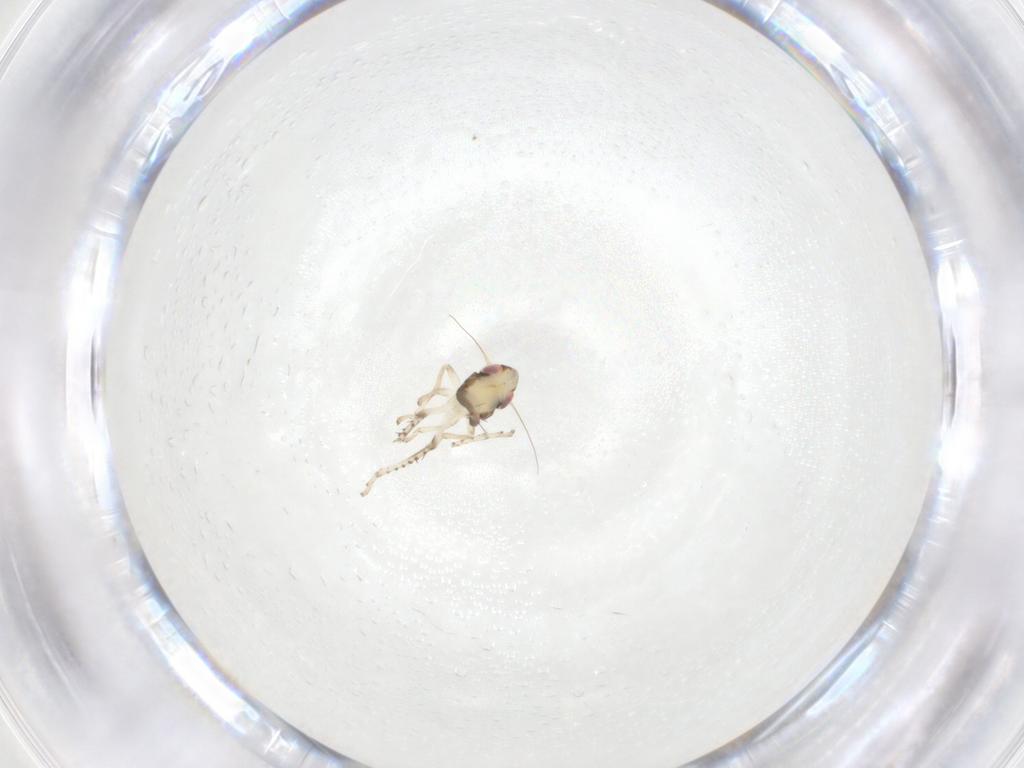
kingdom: Animalia
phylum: Arthropoda
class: Insecta
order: Hemiptera
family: Cicadellidae
